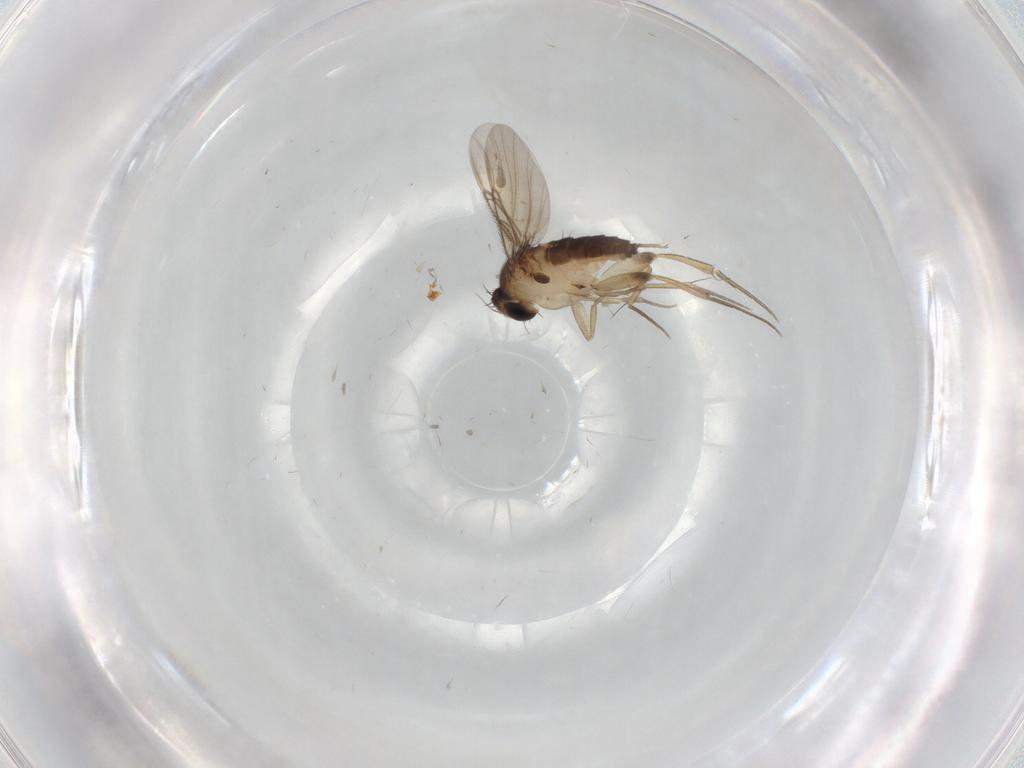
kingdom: Animalia
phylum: Arthropoda
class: Insecta
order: Diptera
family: Phoridae
